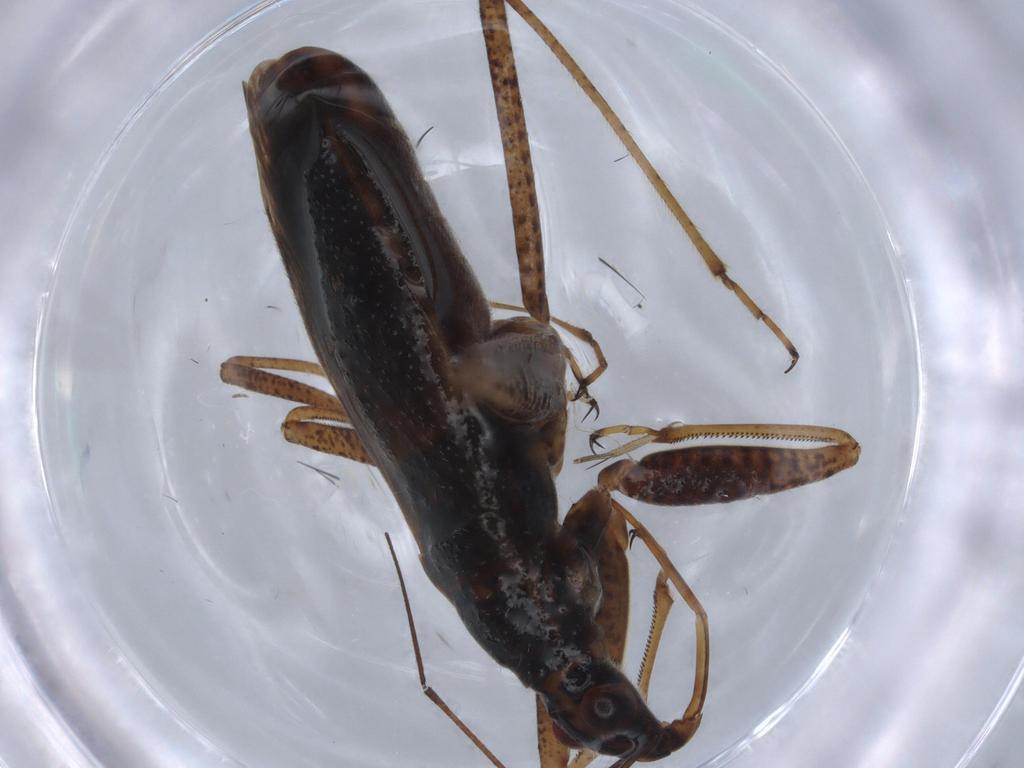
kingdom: Animalia
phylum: Arthropoda
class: Insecta
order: Hemiptera
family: Nabidae
